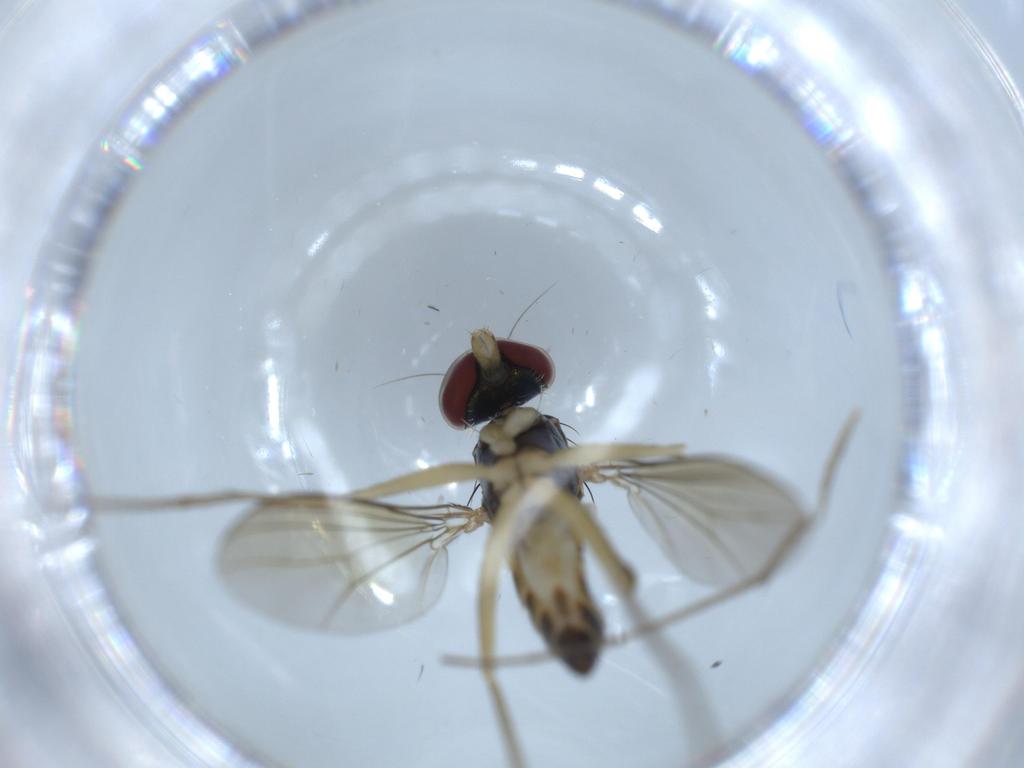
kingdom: Animalia
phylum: Arthropoda
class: Insecta
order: Diptera
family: Dolichopodidae
